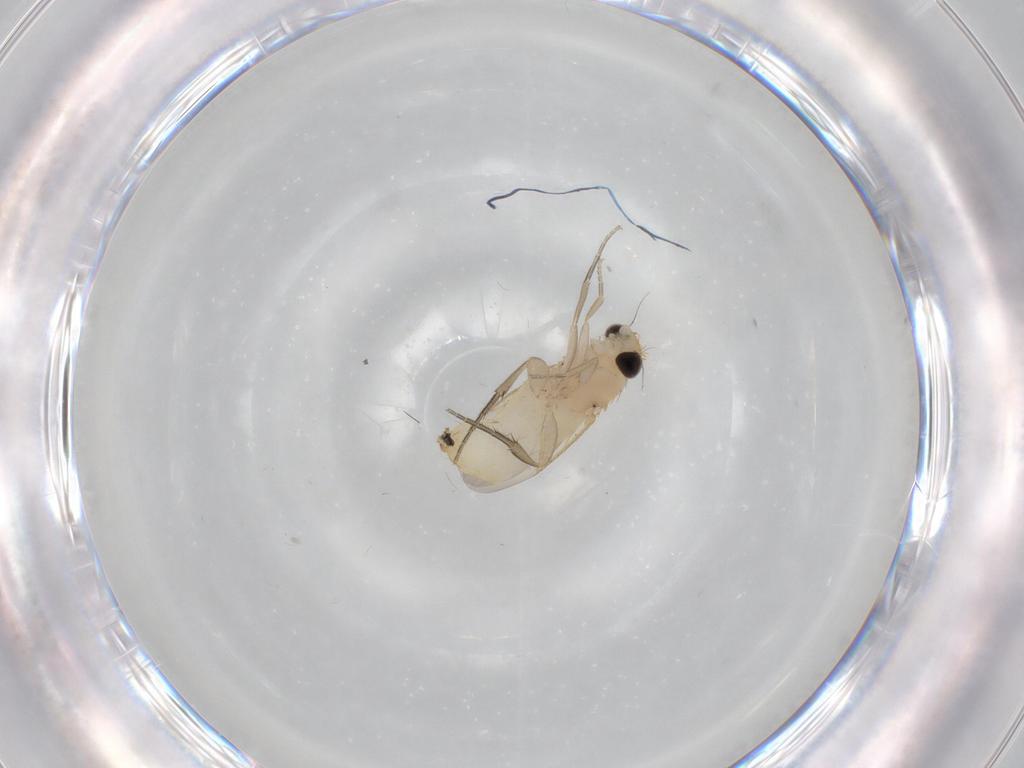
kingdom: Animalia
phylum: Arthropoda
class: Insecta
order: Diptera
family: Phoridae
